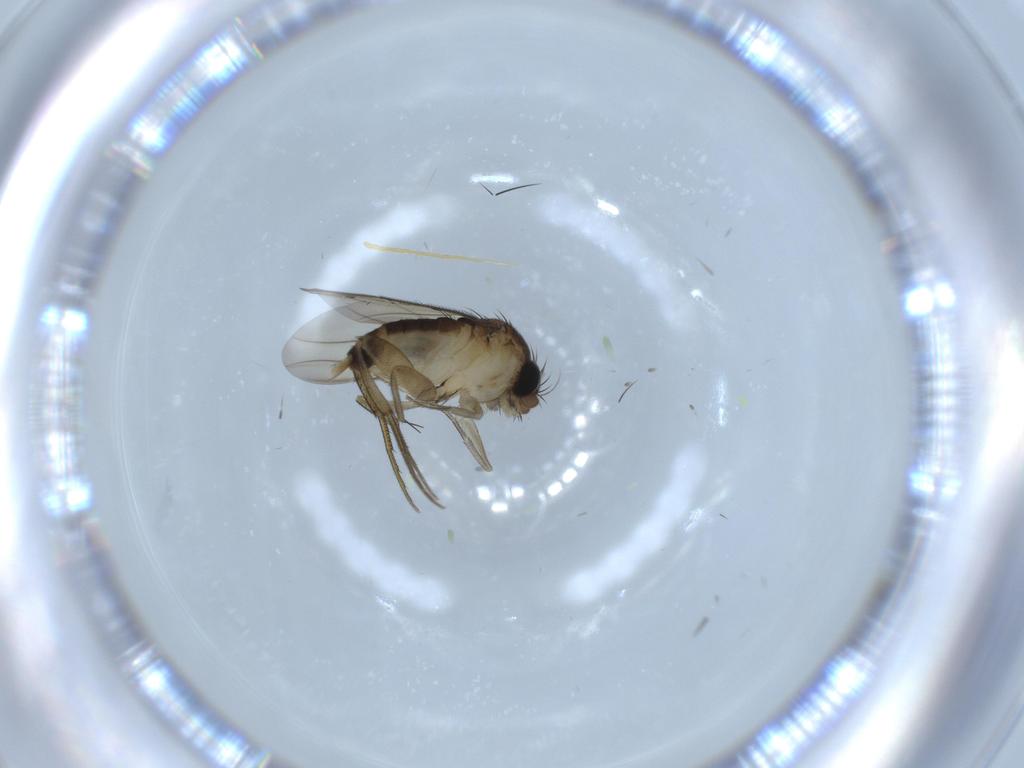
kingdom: Animalia
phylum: Arthropoda
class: Insecta
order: Diptera
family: Phoridae
